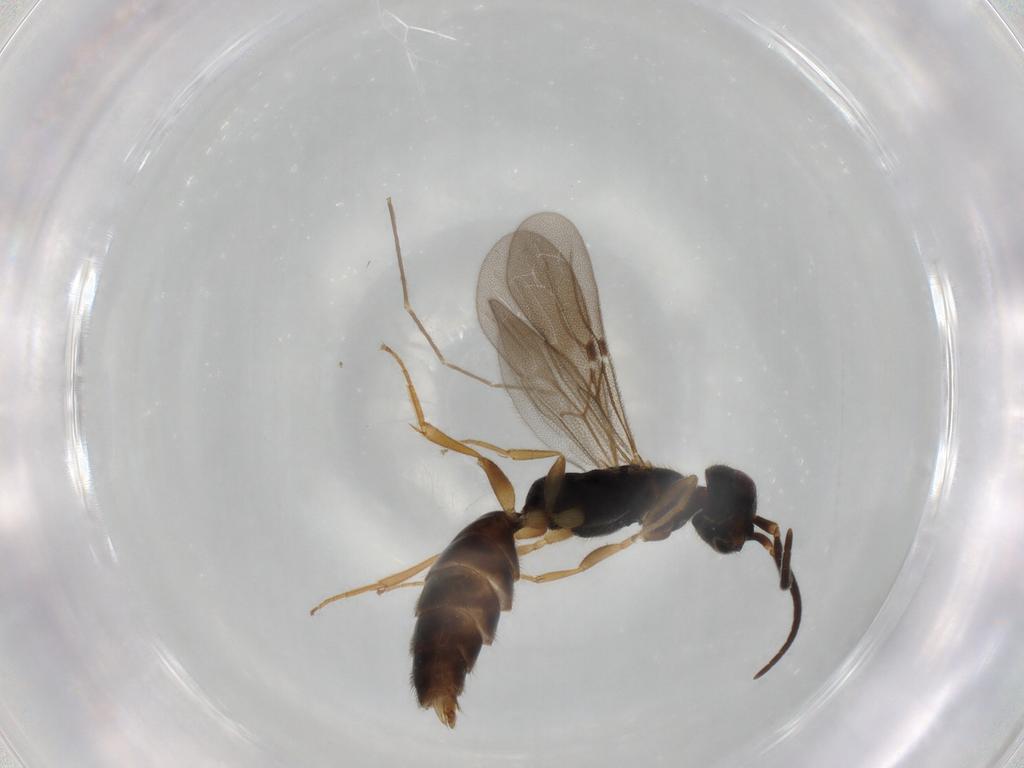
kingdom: Animalia
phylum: Arthropoda
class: Insecta
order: Hymenoptera
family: Bethylidae
